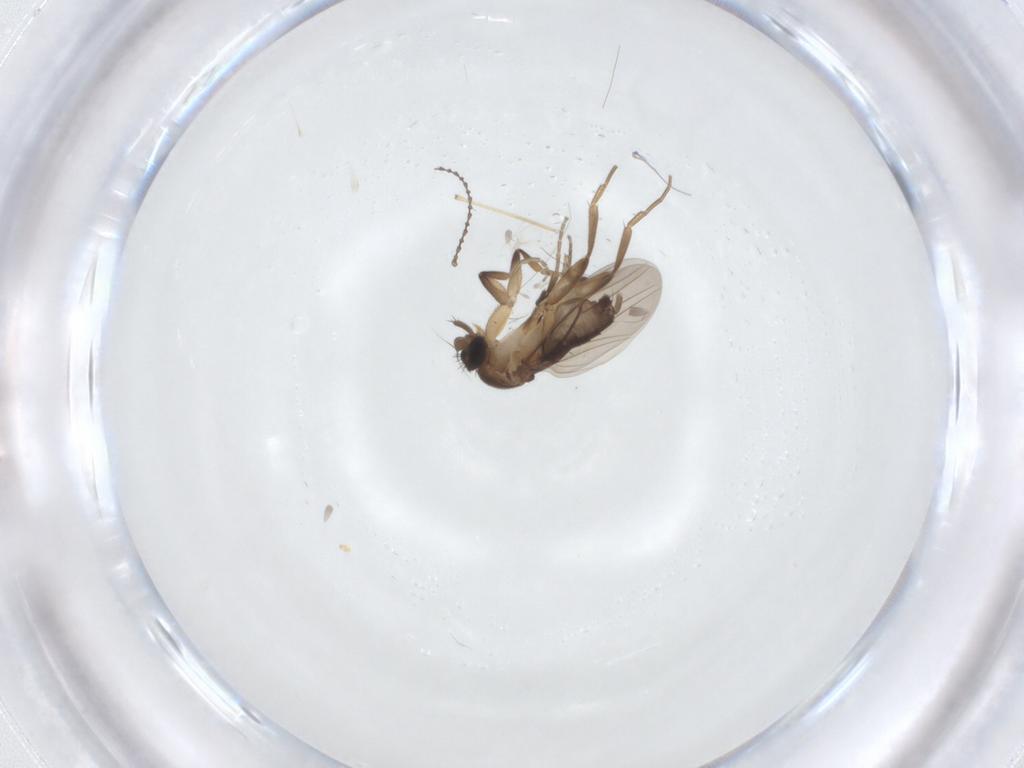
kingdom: Animalia
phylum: Arthropoda
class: Insecta
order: Diptera
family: Phoridae
